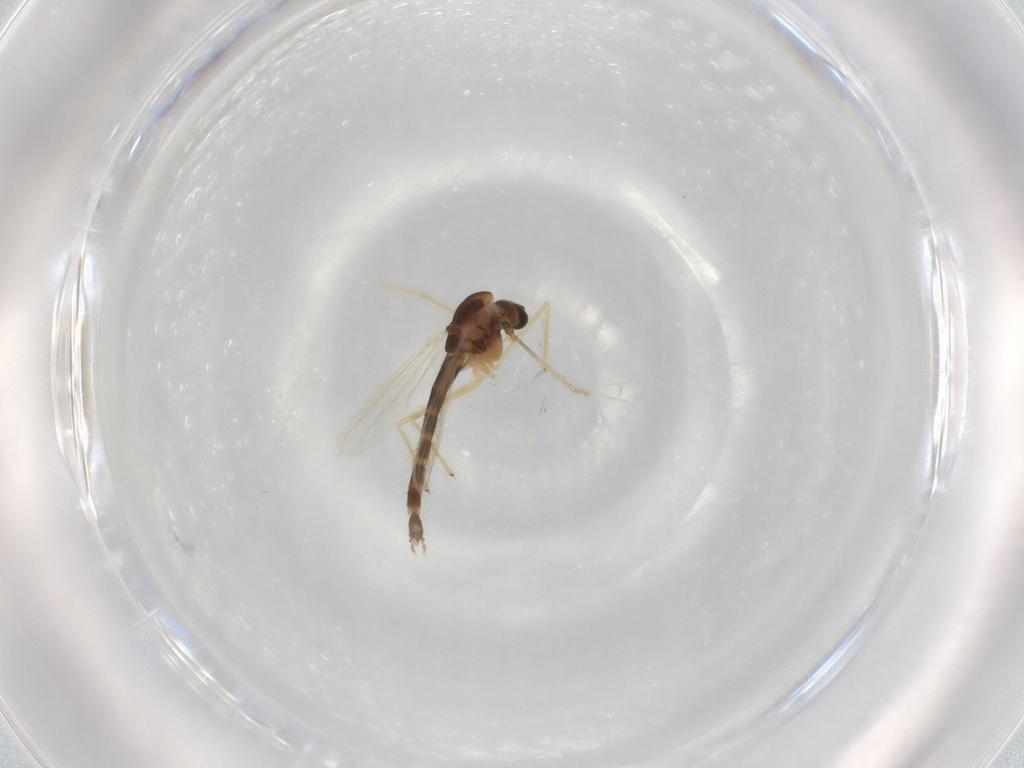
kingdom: Animalia
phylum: Arthropoda
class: Insecta
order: Diptera
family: Chironomidae
